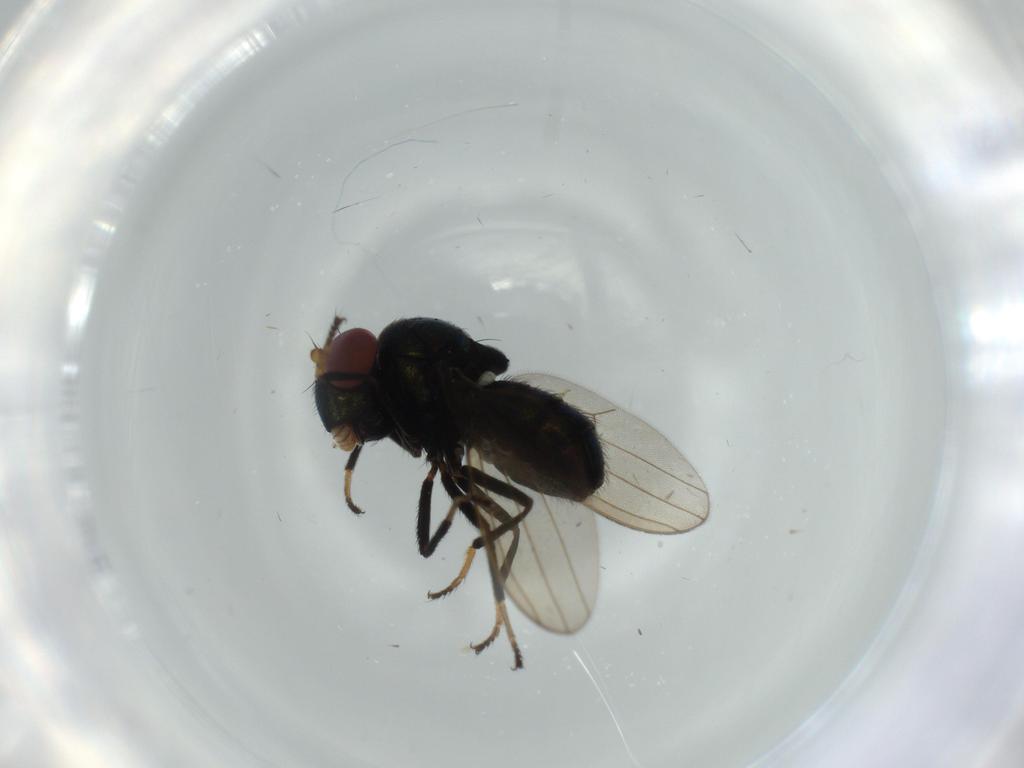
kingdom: Animalia
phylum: Arthropoda
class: Insecta
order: Diptera
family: Ephydridae
